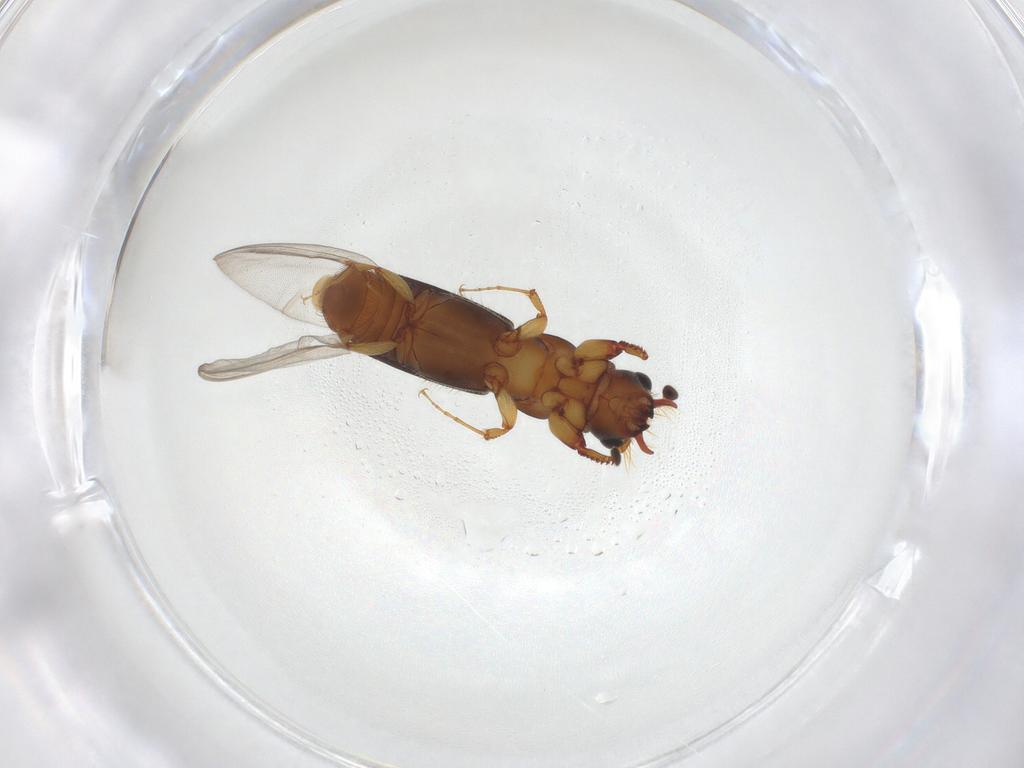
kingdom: Animalia
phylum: Arthropoda
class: Insecta
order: Coleoptera
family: Curculionidae
